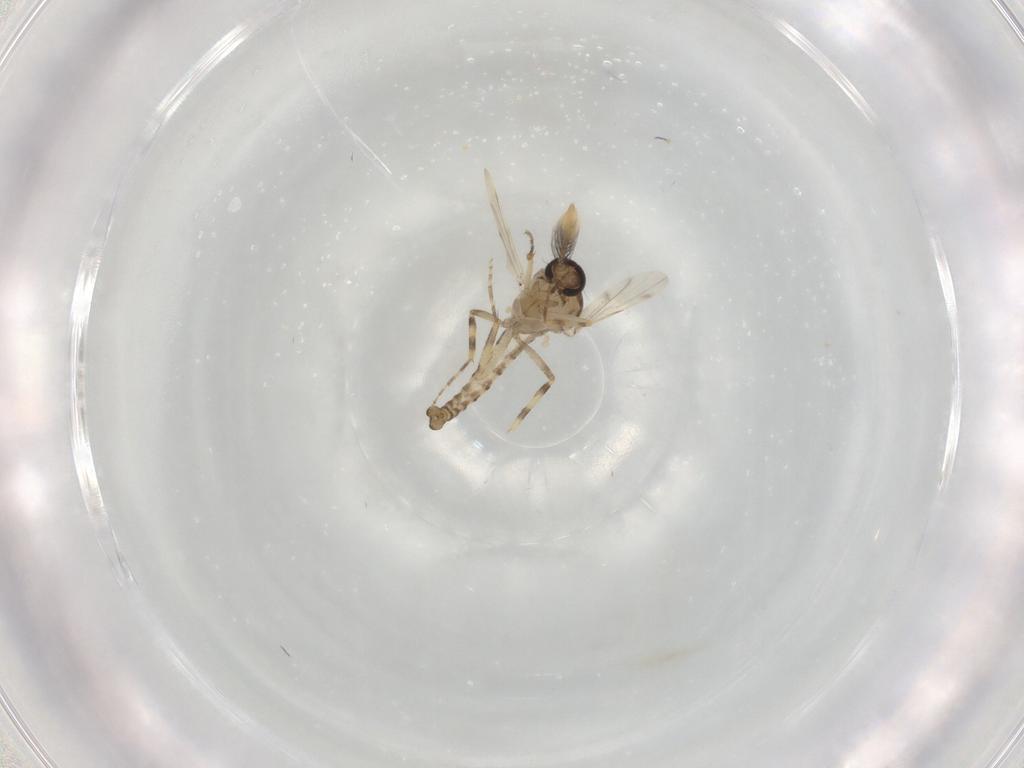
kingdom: Animalia
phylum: Arthropoda
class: Insecta
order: Diptera
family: Ceratopogonidae
